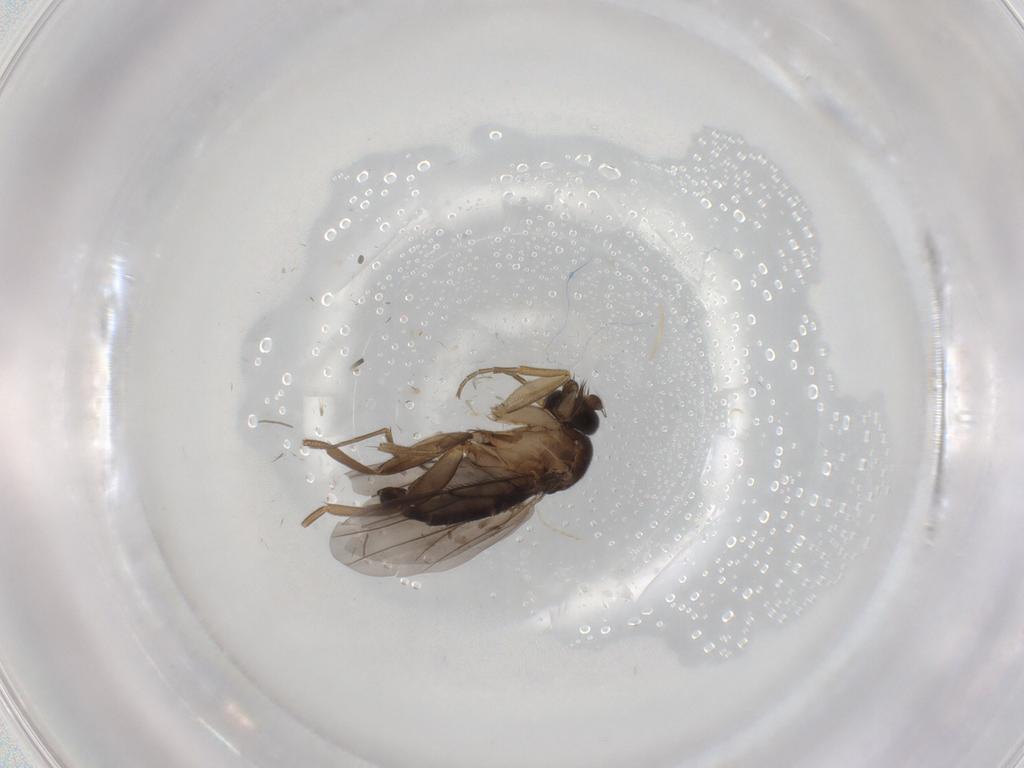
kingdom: Animalia
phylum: Arthropoda
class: Insecta
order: Diptera
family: Phoridae
